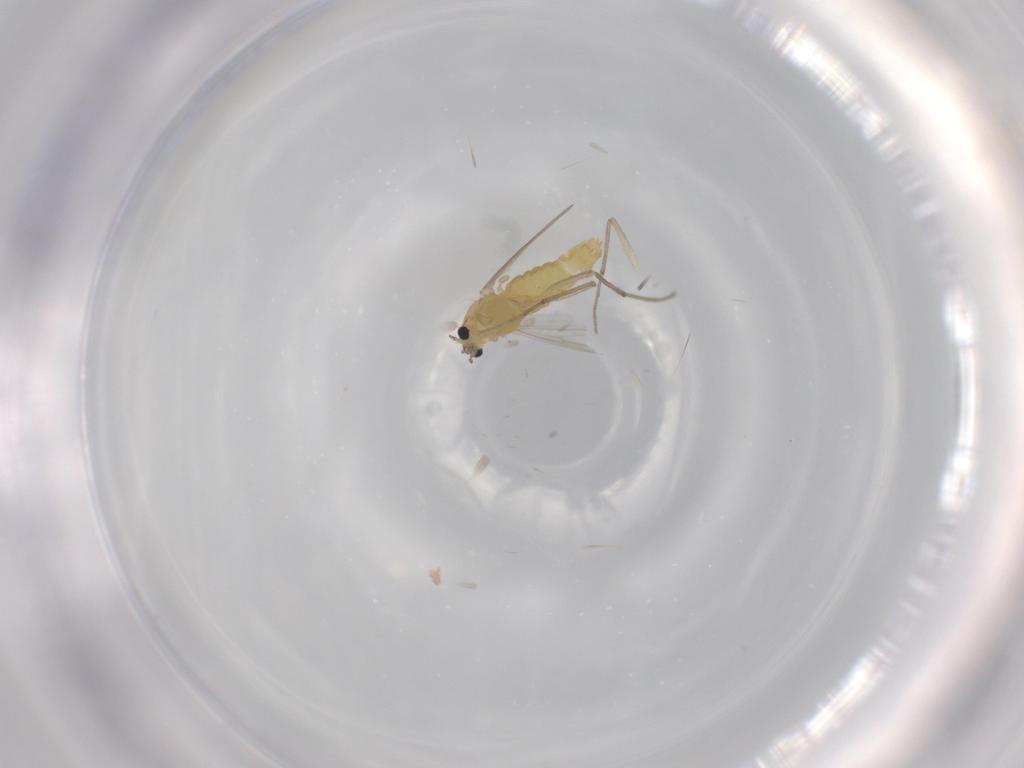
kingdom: Animalia
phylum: Arthropoda
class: Insecta
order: Diptera
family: Chironomidae
